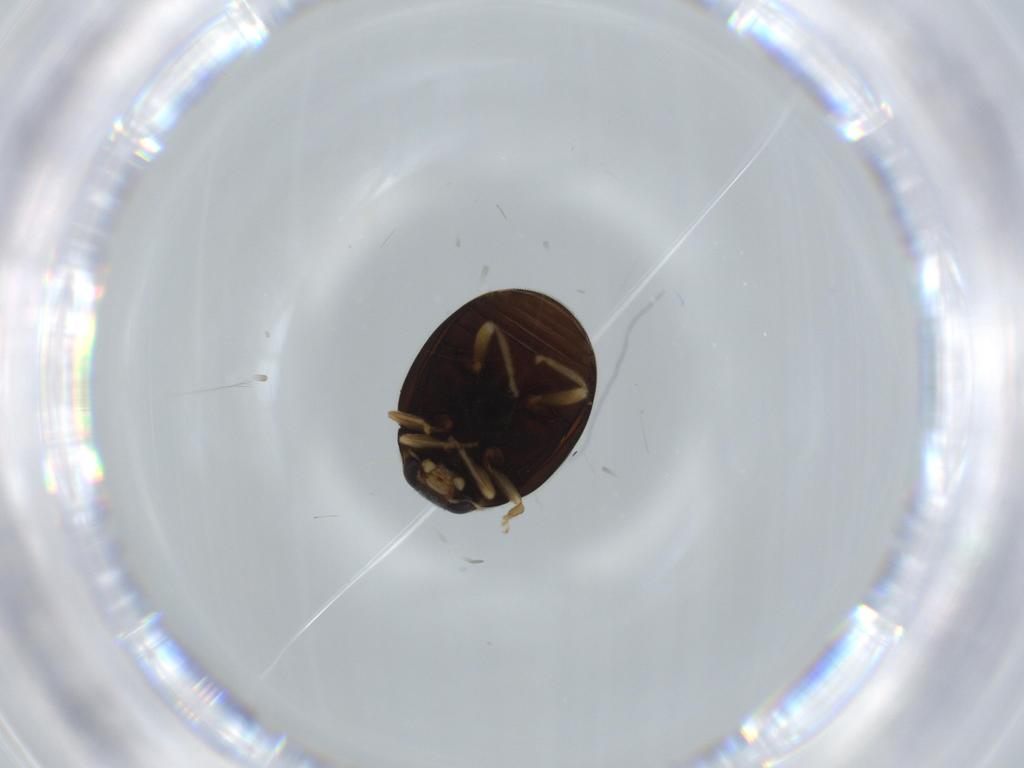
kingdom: Animalia
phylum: Arthropoda
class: Insecta
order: Coleoptera
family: Coccinellidae
